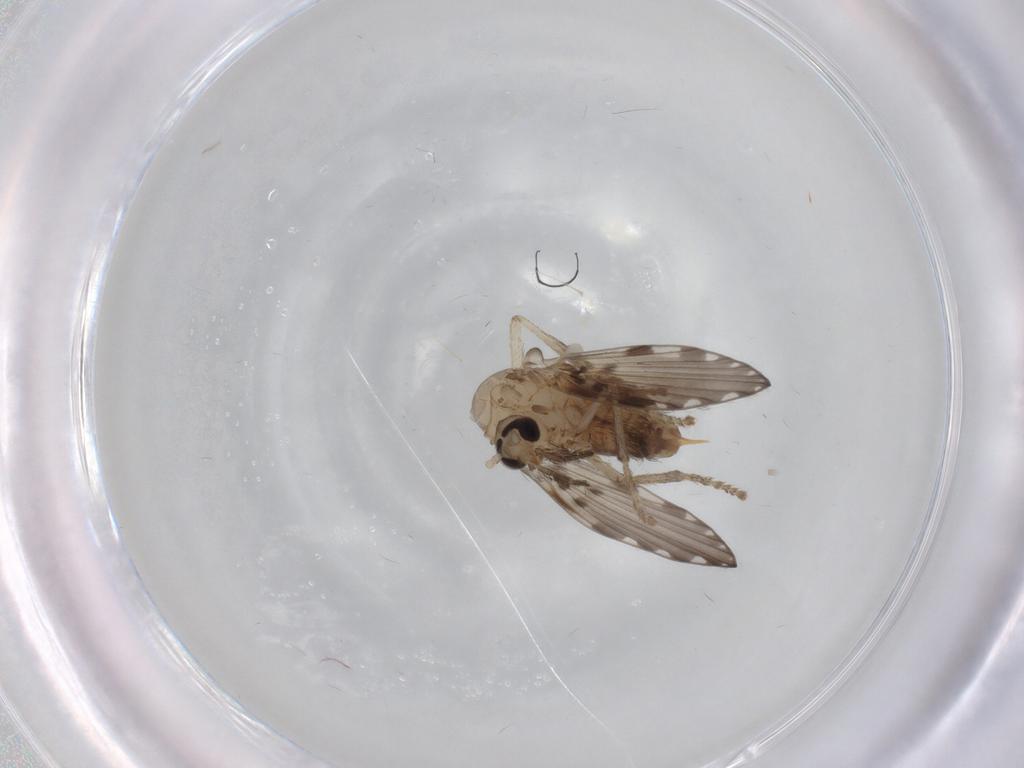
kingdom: Animalia
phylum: Arthropoda
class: Insecta
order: Diptera
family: Psychodidae
